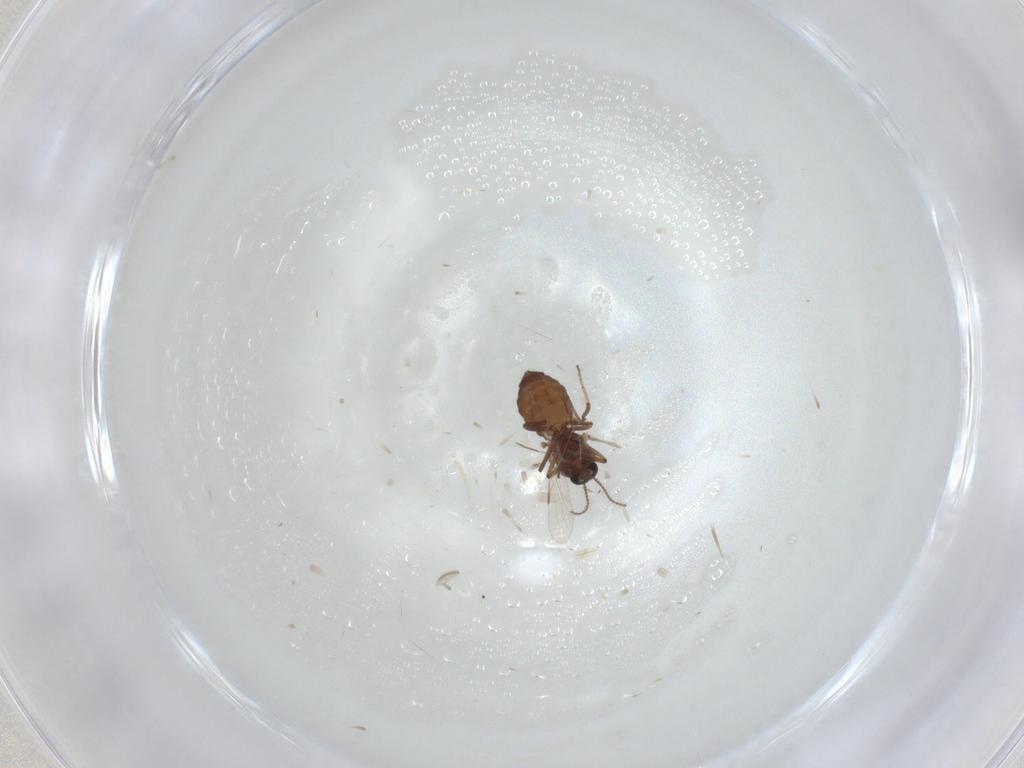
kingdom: Animalia
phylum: Arthropoda
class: Insecta
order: Diptera
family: Ceratopogonidae
